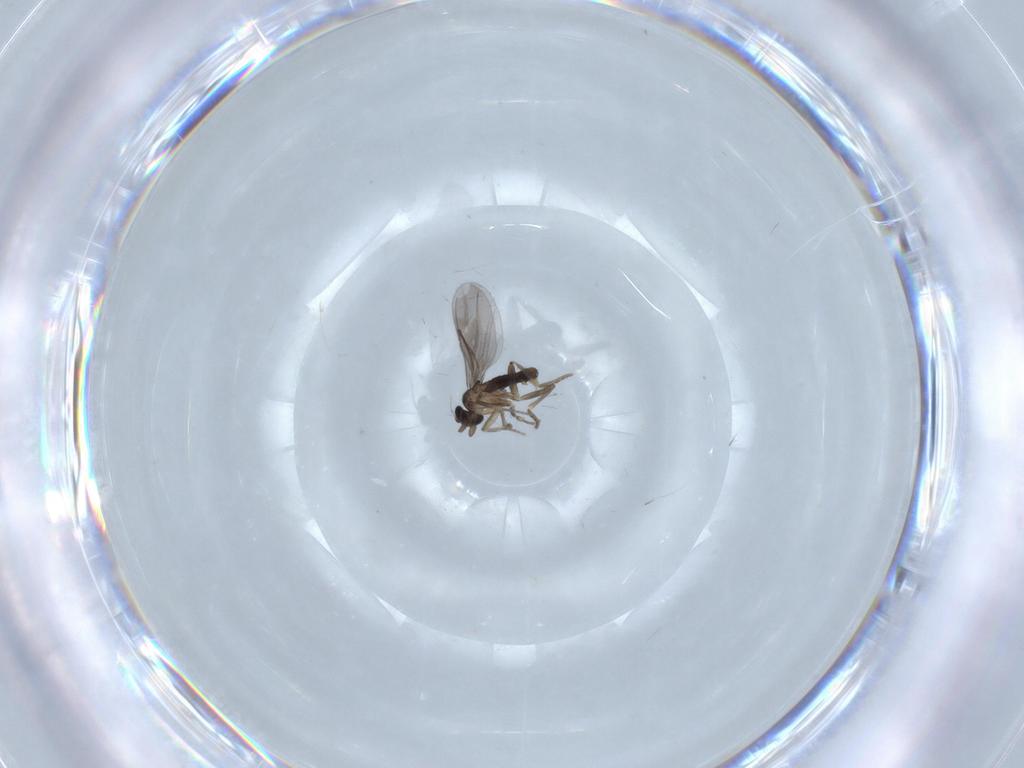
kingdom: Animalia
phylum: Arthropoda
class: Insecta
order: Diptera
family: Phoridae
